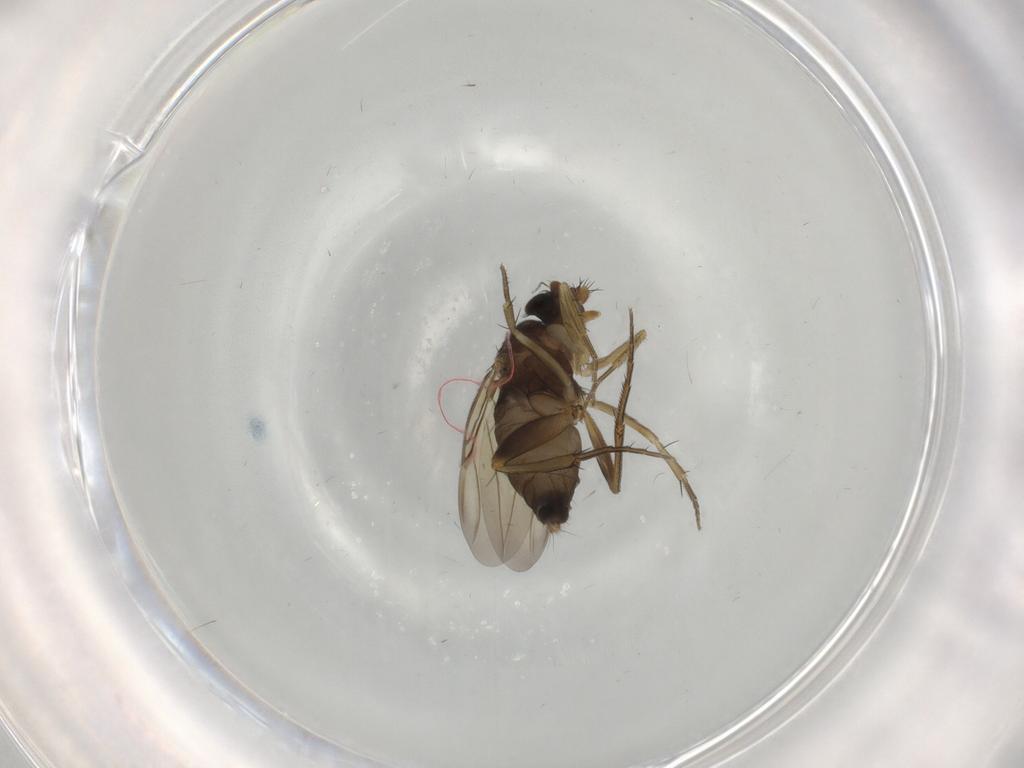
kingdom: Animalia
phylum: Arthropoda
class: Insecta
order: Diptera
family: Phoridae
